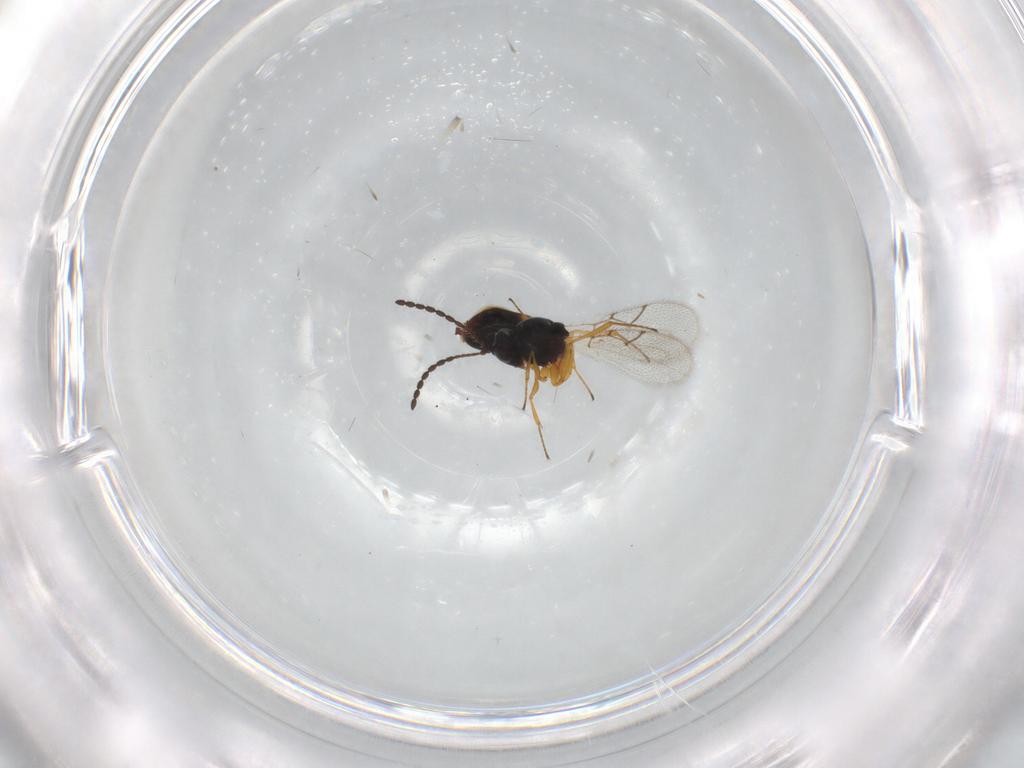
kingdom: Animalia
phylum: Arthropoda
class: Insecta
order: Hymenoptera
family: Figitidae
